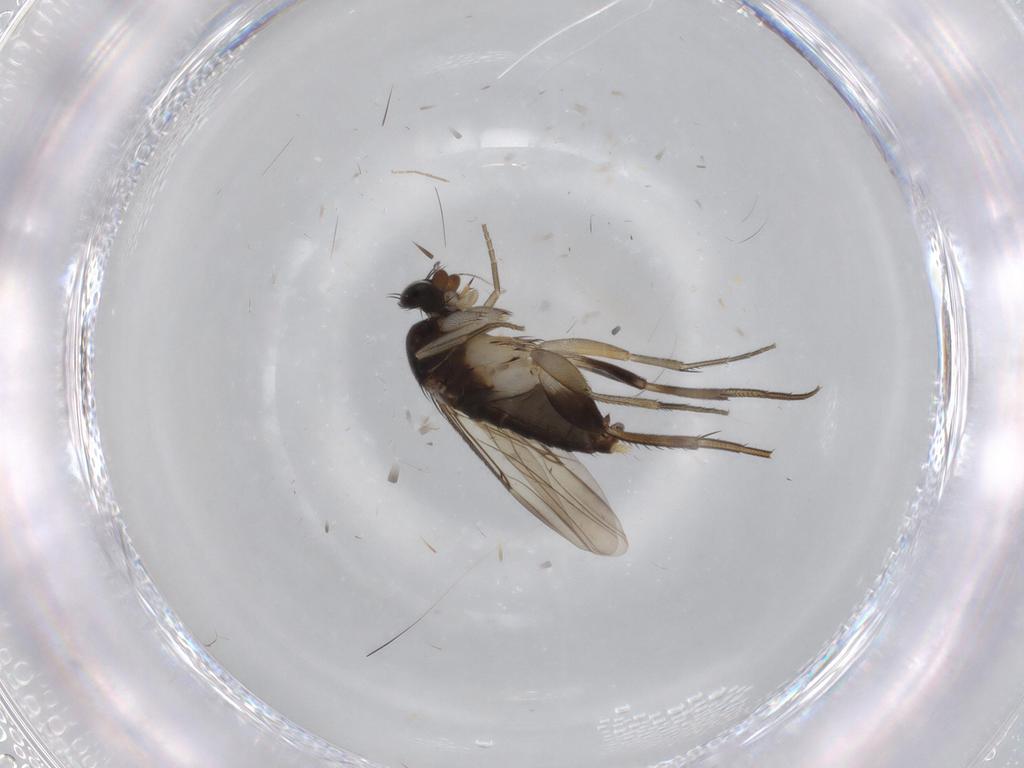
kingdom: Animalia
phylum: Arthropoda
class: Insecta
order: Diptera
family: Phoridae
